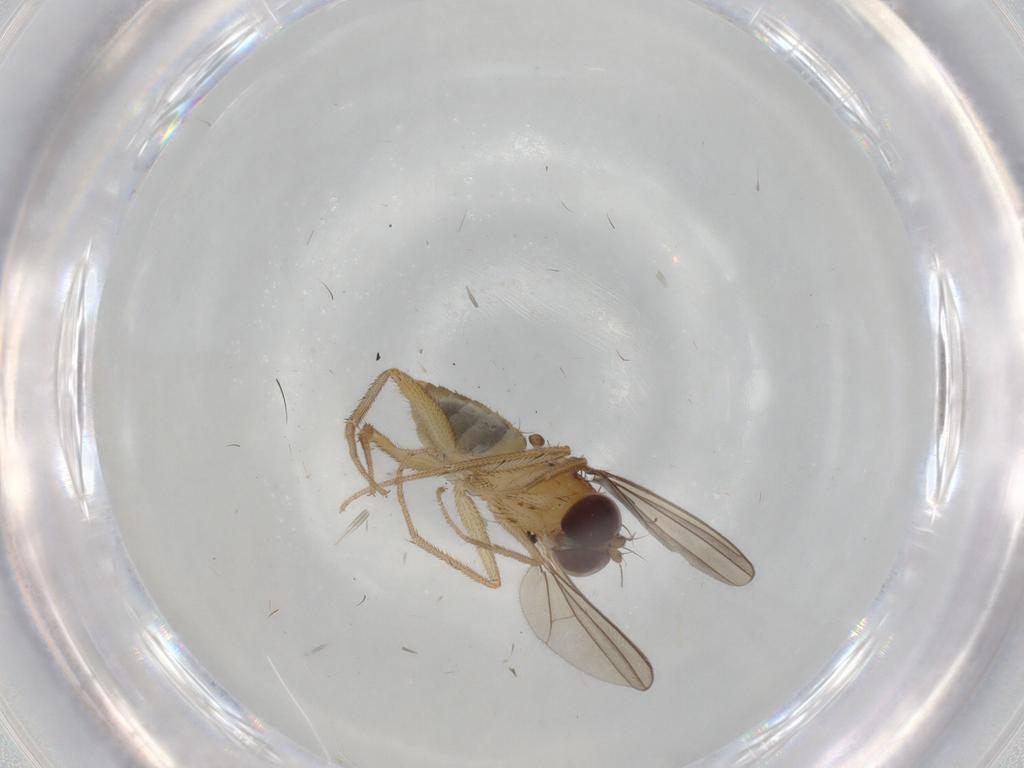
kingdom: Animalia
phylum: Arthropoda
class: Insecta
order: Diptera
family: Dolichopodidae
